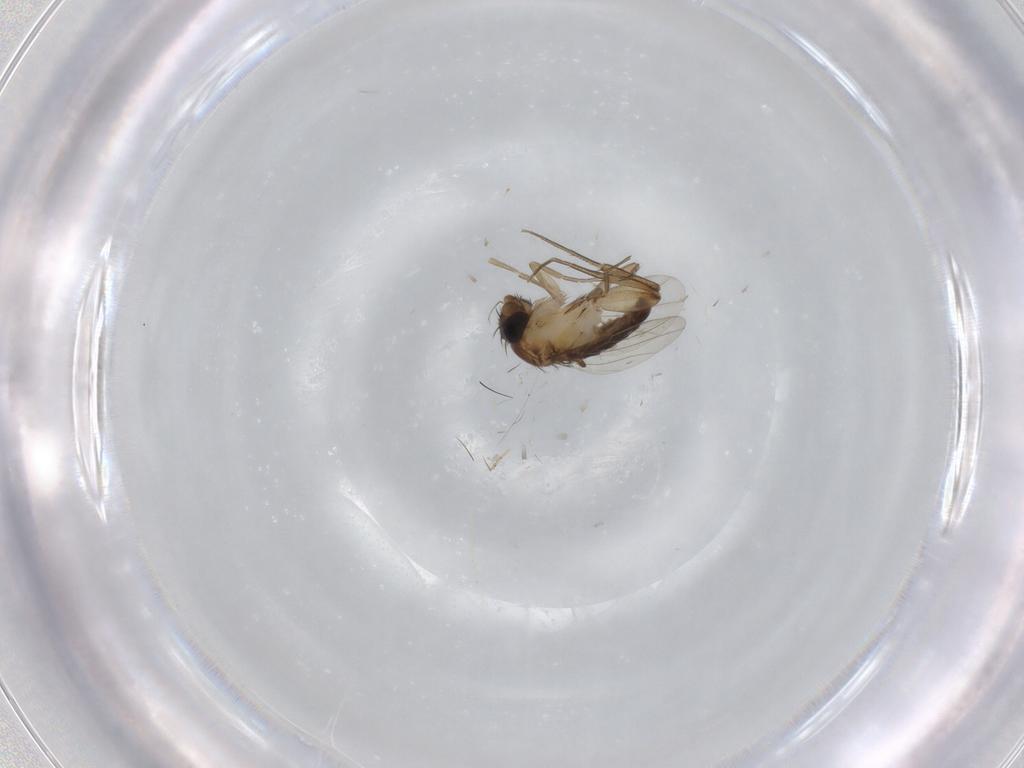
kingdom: Animalia
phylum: Arthropoda
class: Insecta
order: Diptera
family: Phoridae
